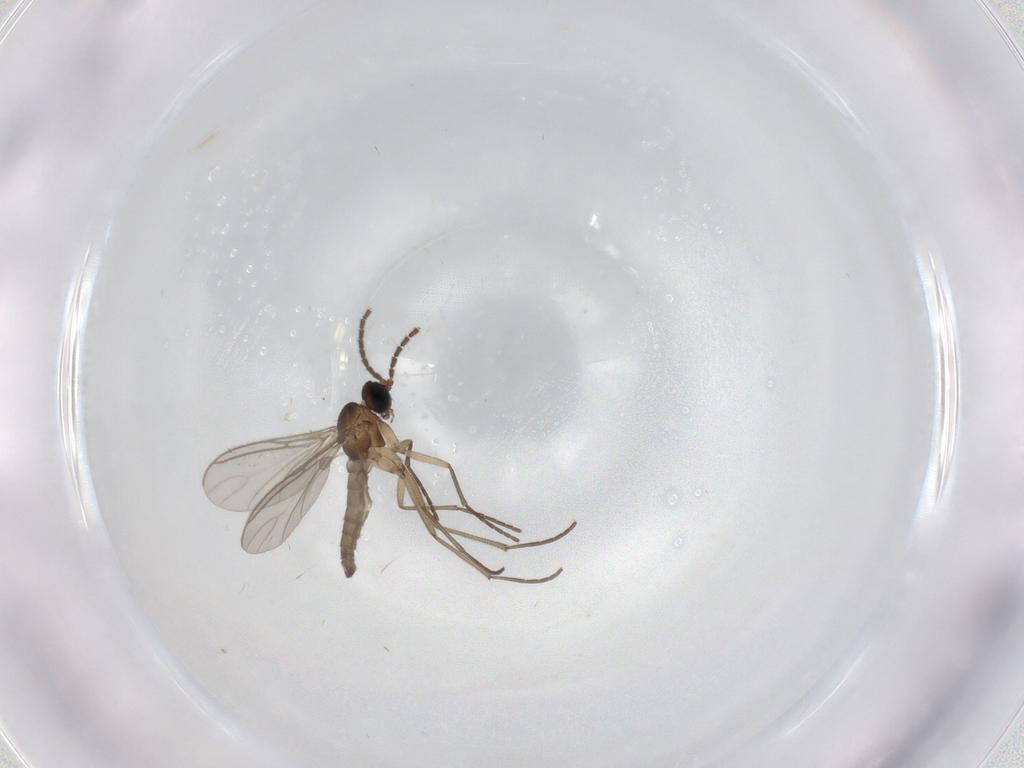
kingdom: Animalia
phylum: Arthropoda
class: Insecta
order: Diptera
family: Sciaridae
